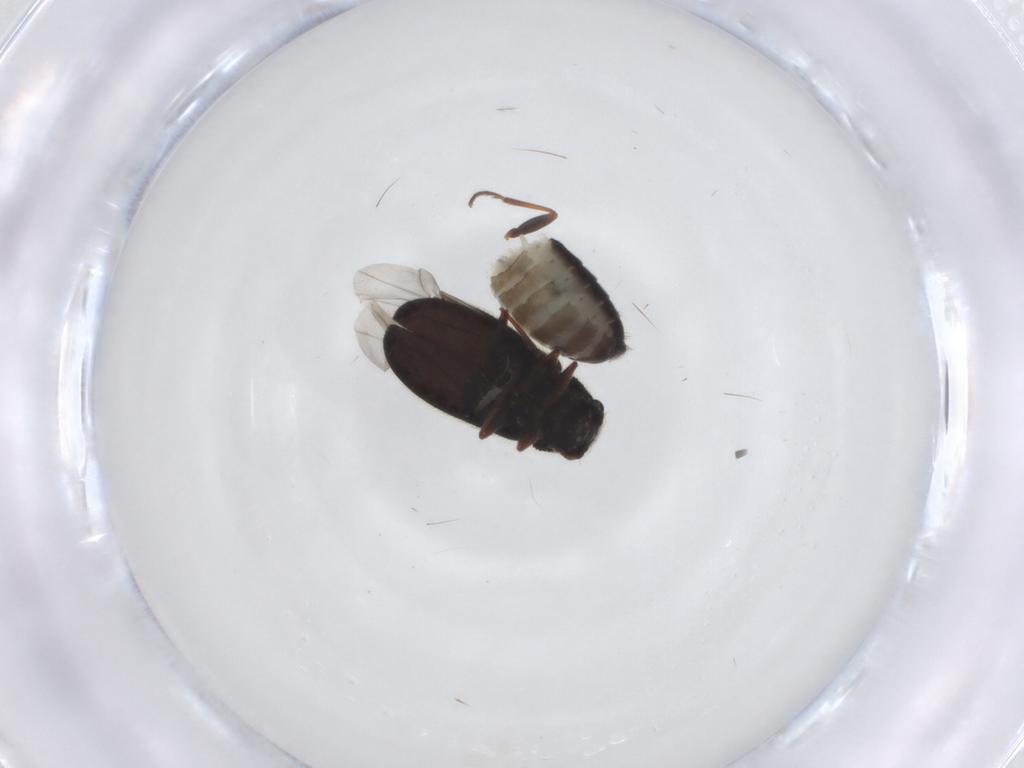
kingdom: Animalia
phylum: Arthropoda
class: Insecta
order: Coleoptera
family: Melyridae
